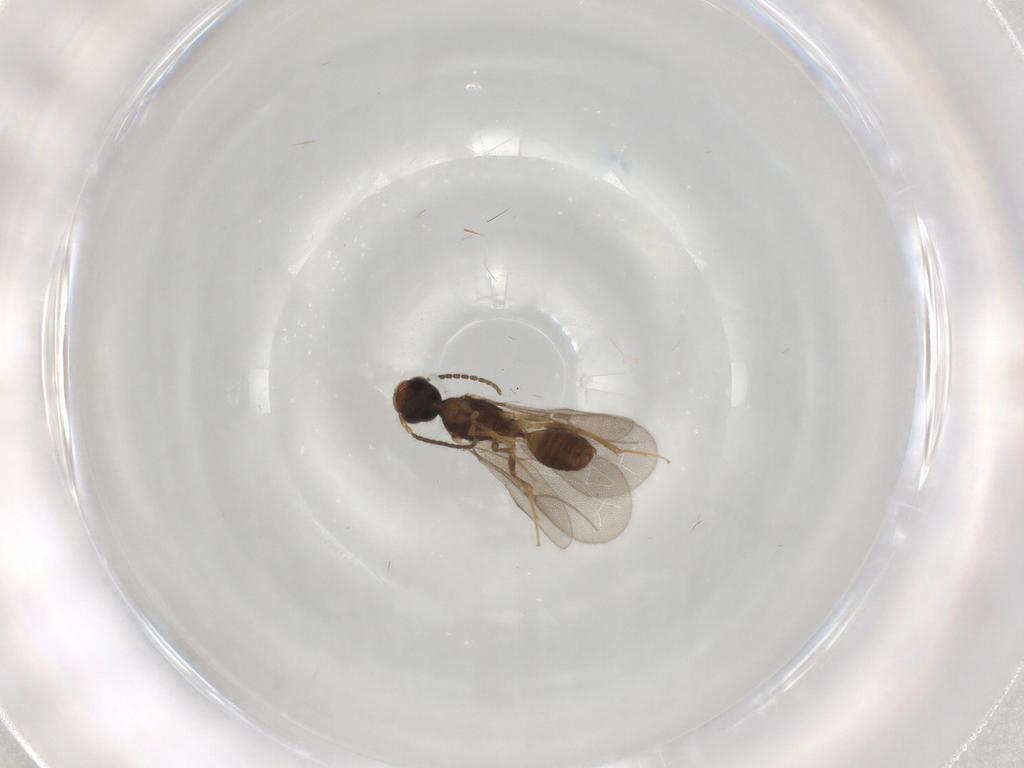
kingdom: Animalia
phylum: Arthropoda
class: Insecta
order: Hymenoptera
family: Bethylidae
